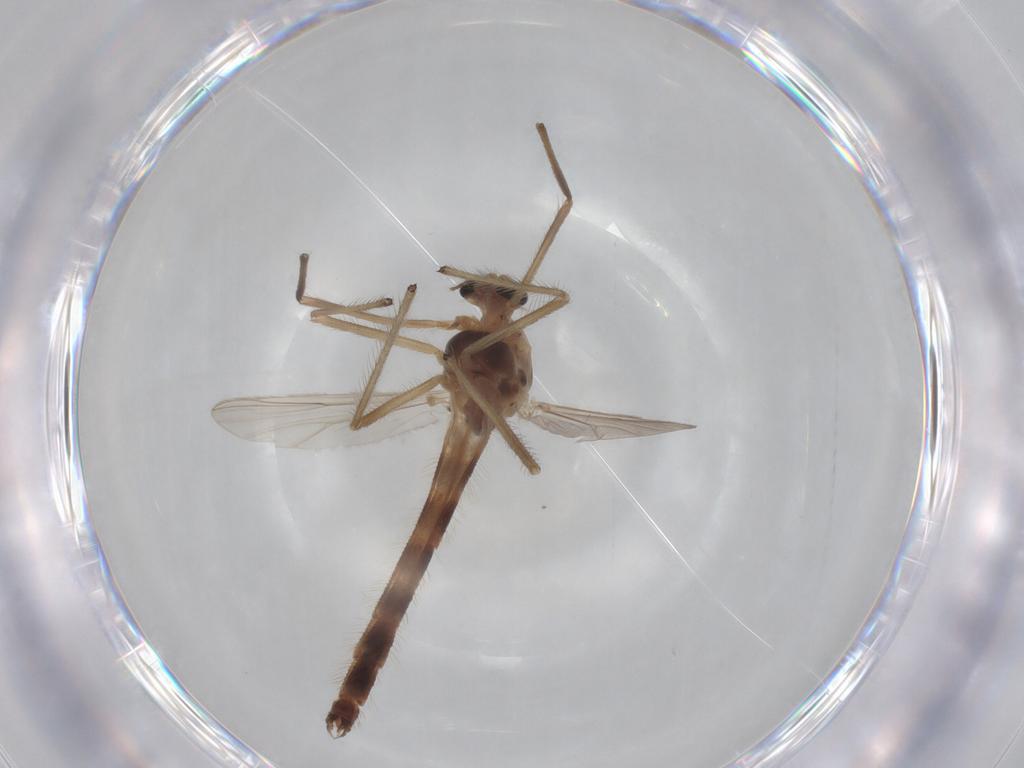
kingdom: Animalia
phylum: Arthropoda
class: Insecta
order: Diptera
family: Chironomidae
